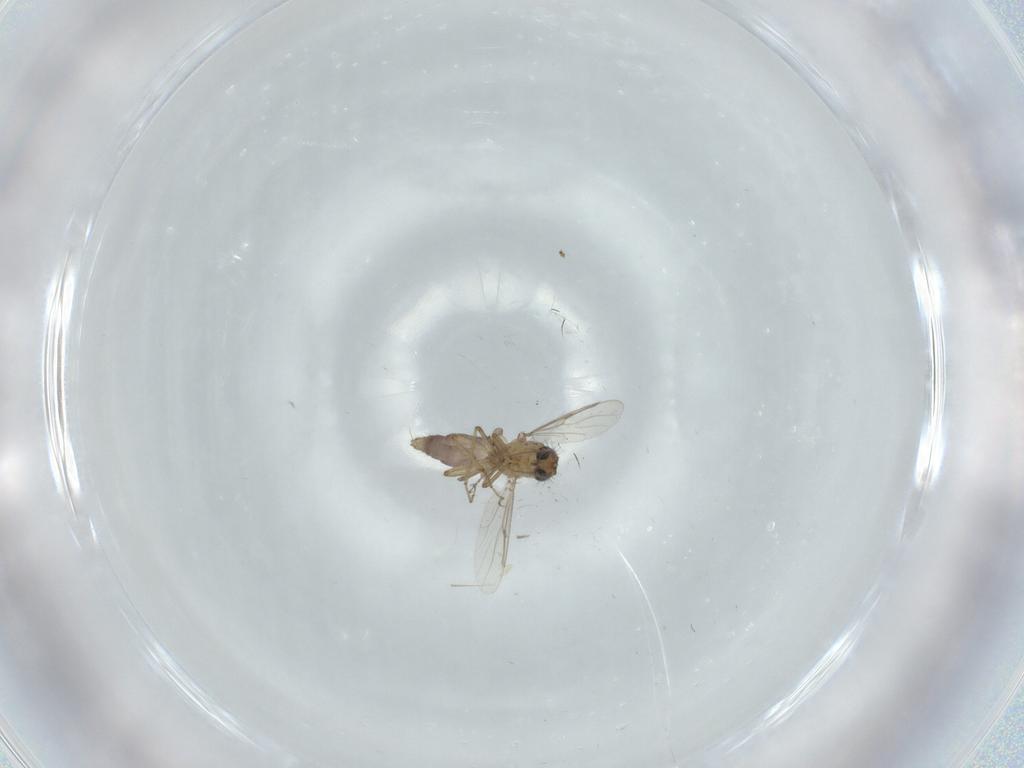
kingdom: Animalia
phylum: Arthropoda
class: Insecta
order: Diptera
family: Ceratopogonidae
